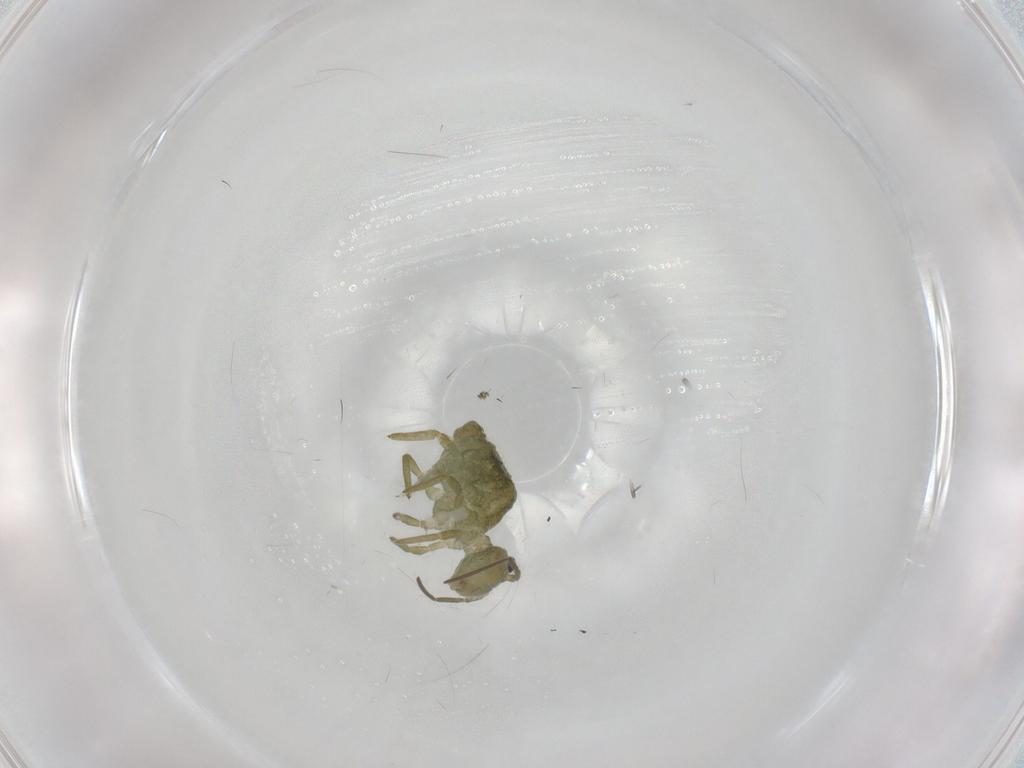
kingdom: Animalia
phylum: Arthropoda
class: Collembola
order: Symphypleona
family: Sminthuridae
